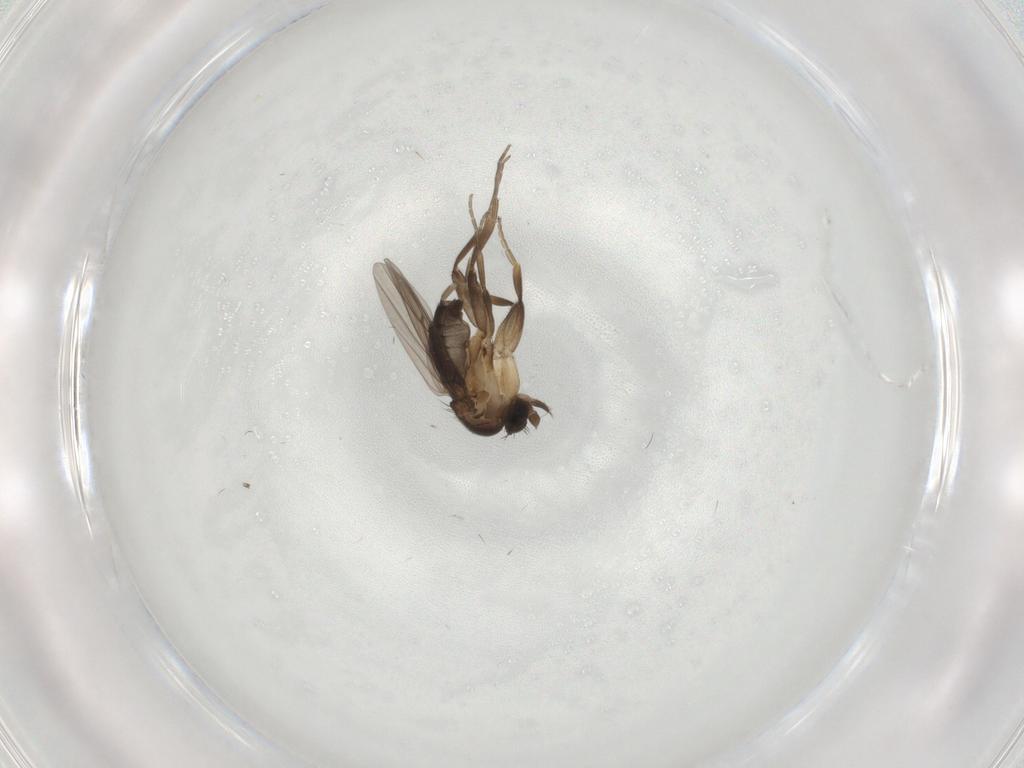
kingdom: Animalia
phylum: Arthropoda
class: Insecta
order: Diptera
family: Phoridae
